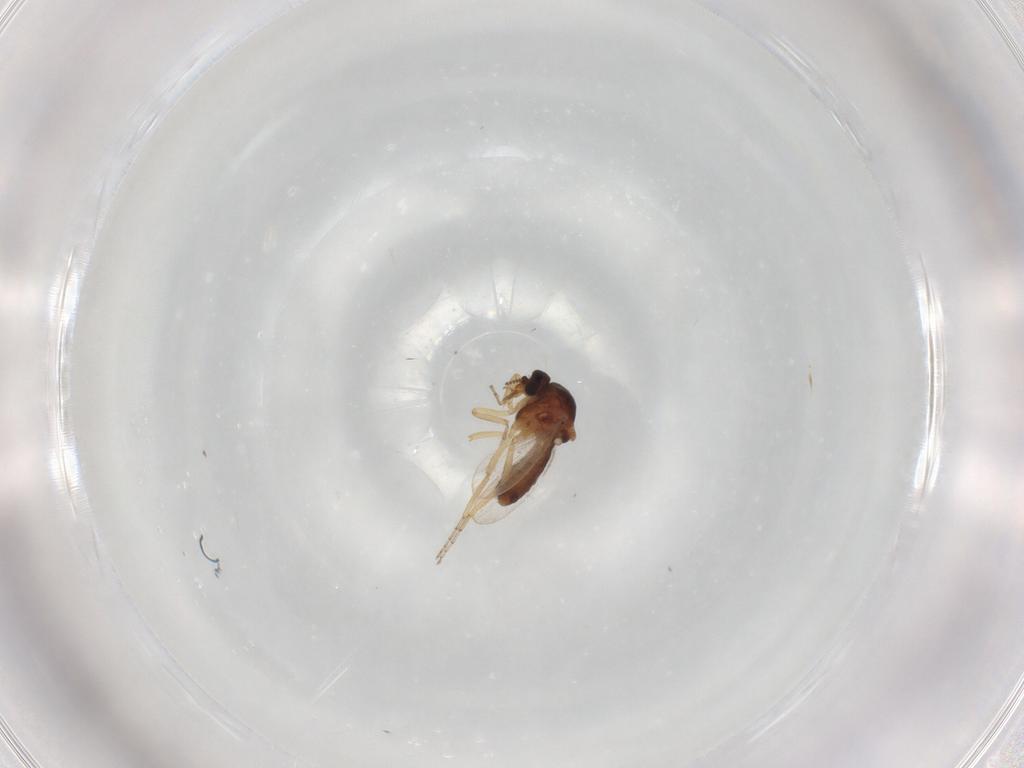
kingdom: Animalia
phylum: Arthropoda
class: Insecta
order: Diptera
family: Ceratopogonidae
